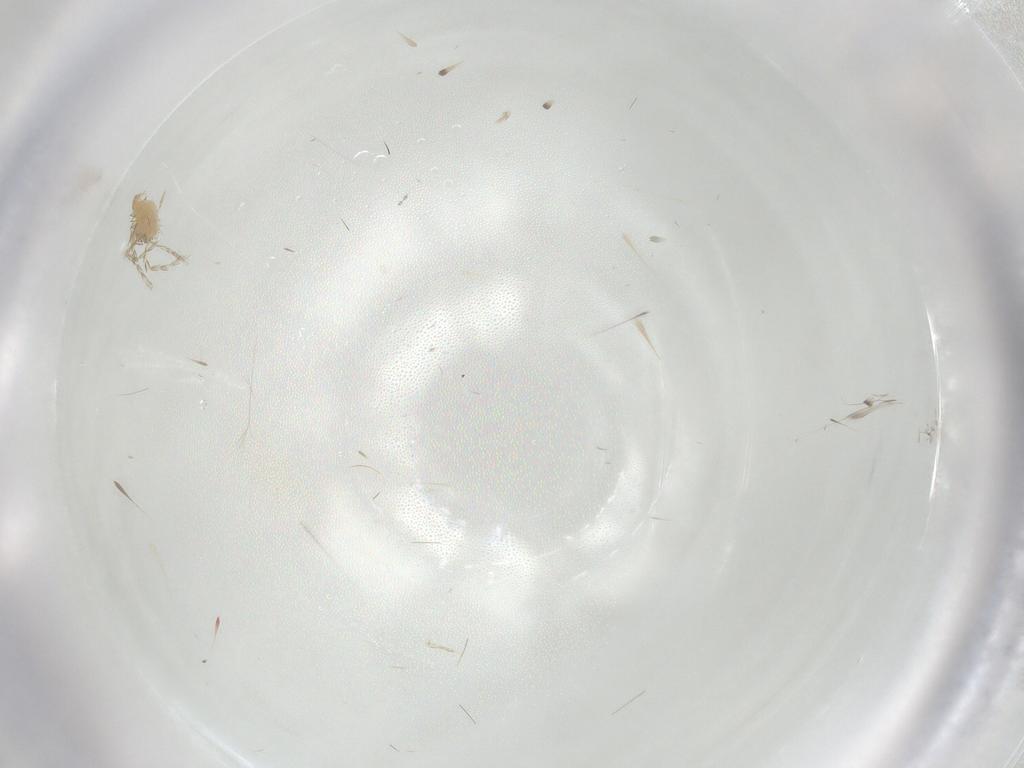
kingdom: Animalia
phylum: Arthropoda
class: Insecta
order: Diptera
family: Cecidomyiidae
